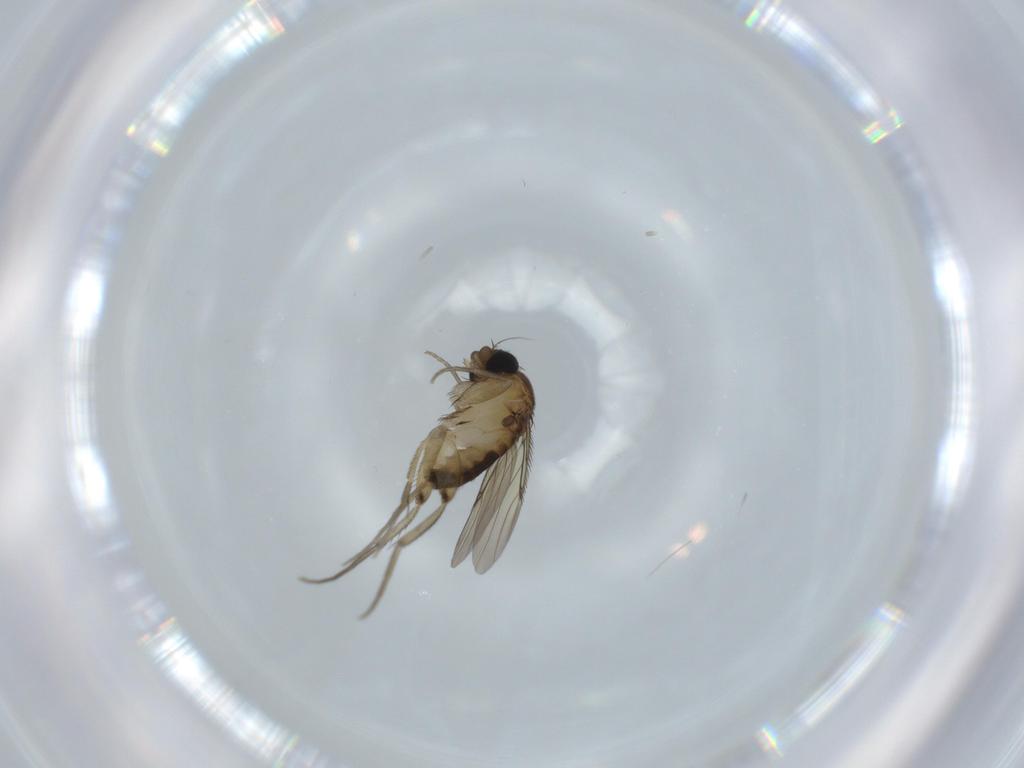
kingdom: Animalia
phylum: Arthropoda
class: Insecta
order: Diptera
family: Phoridae
